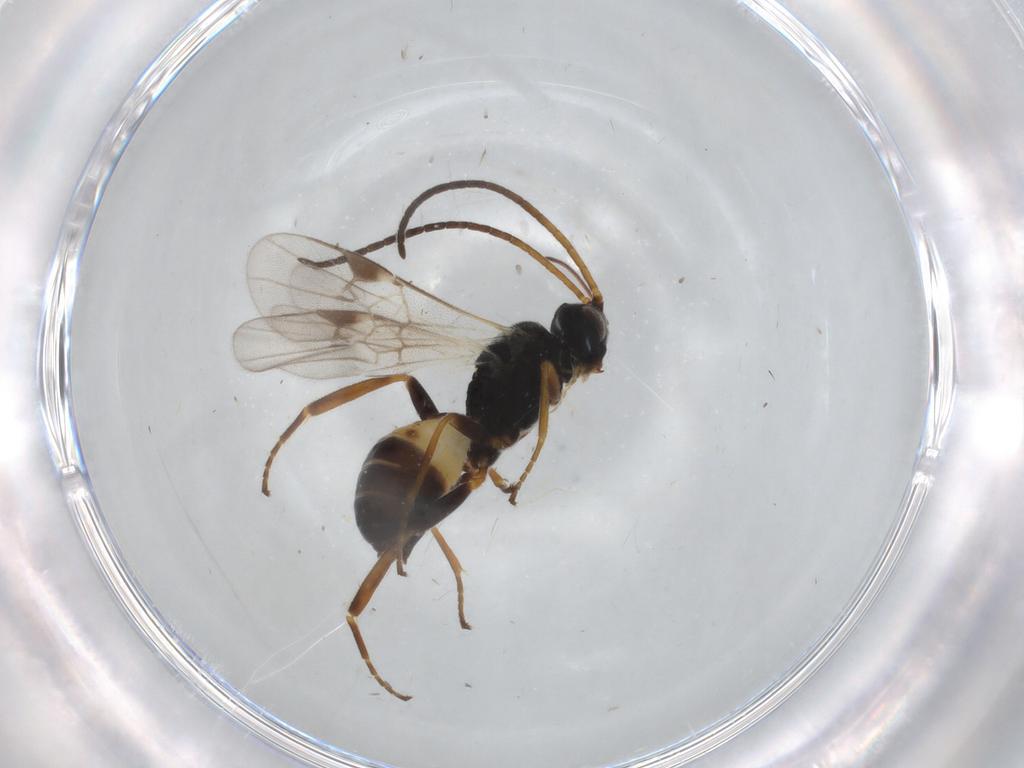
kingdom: Animalia
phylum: Arthropoda
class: Insecta
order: Hymenoptera
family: Braconidae
